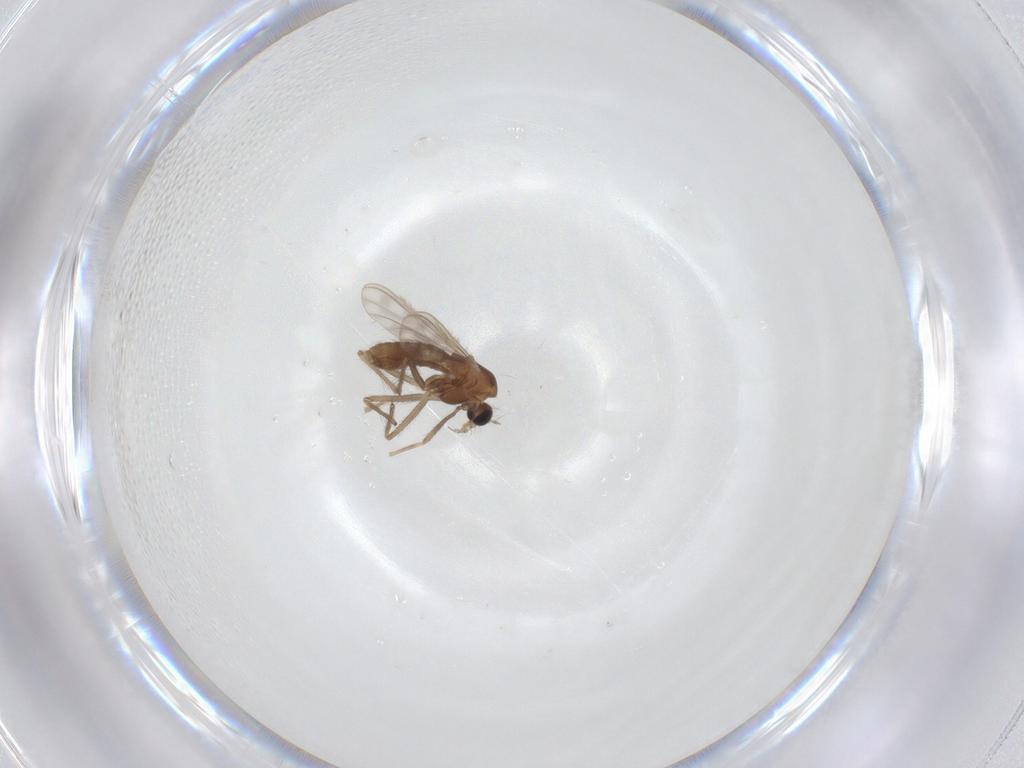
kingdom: Animalia
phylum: Arthropoda
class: Insecta
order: Diptera
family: Chironomidae
